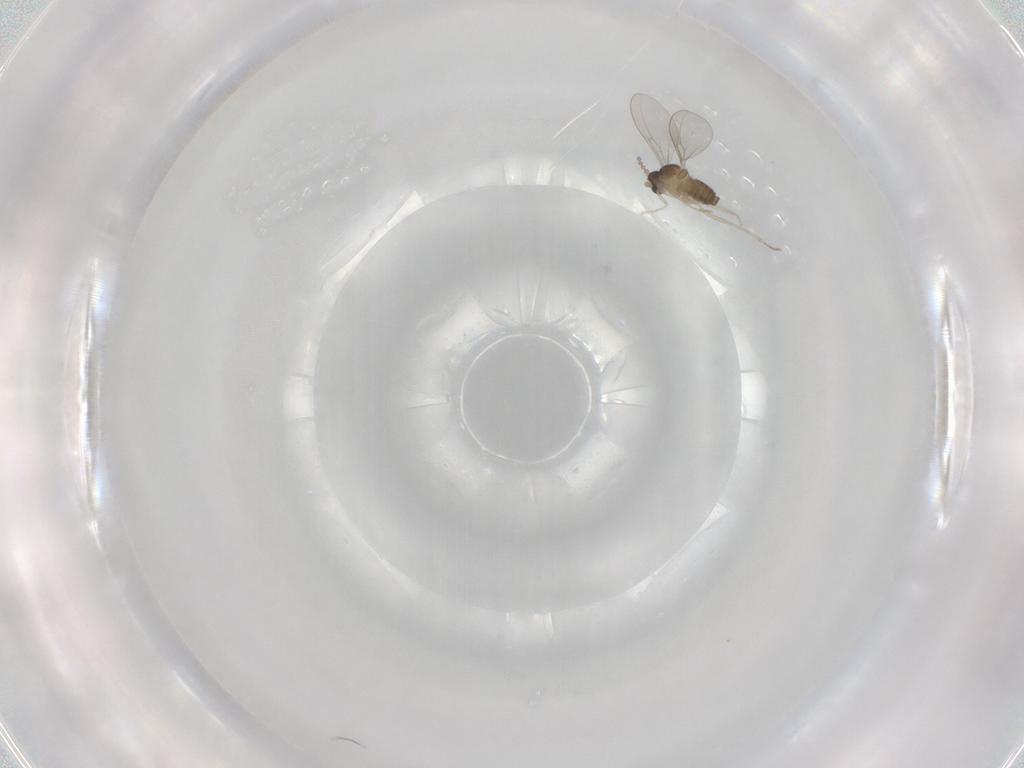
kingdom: Animalia
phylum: Arthropoda
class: Insecta
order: Diptera
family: Cecidomyiidae
